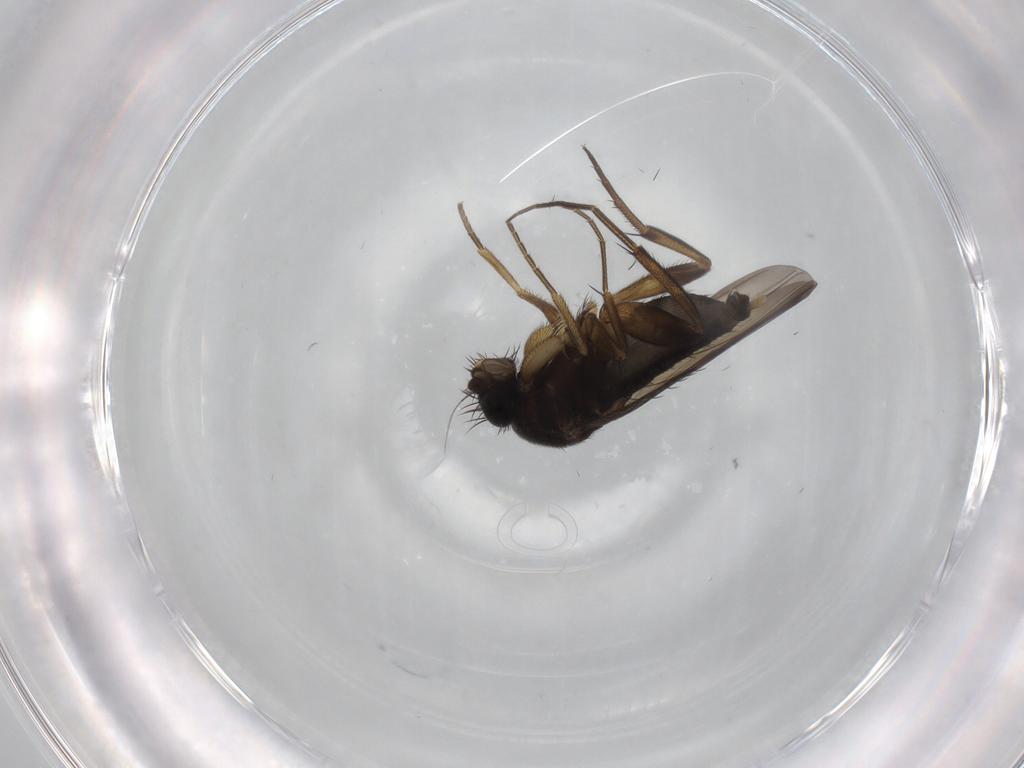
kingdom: Animalia
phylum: Arthropoda
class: Insecta
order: Diptera
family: Phoridae
